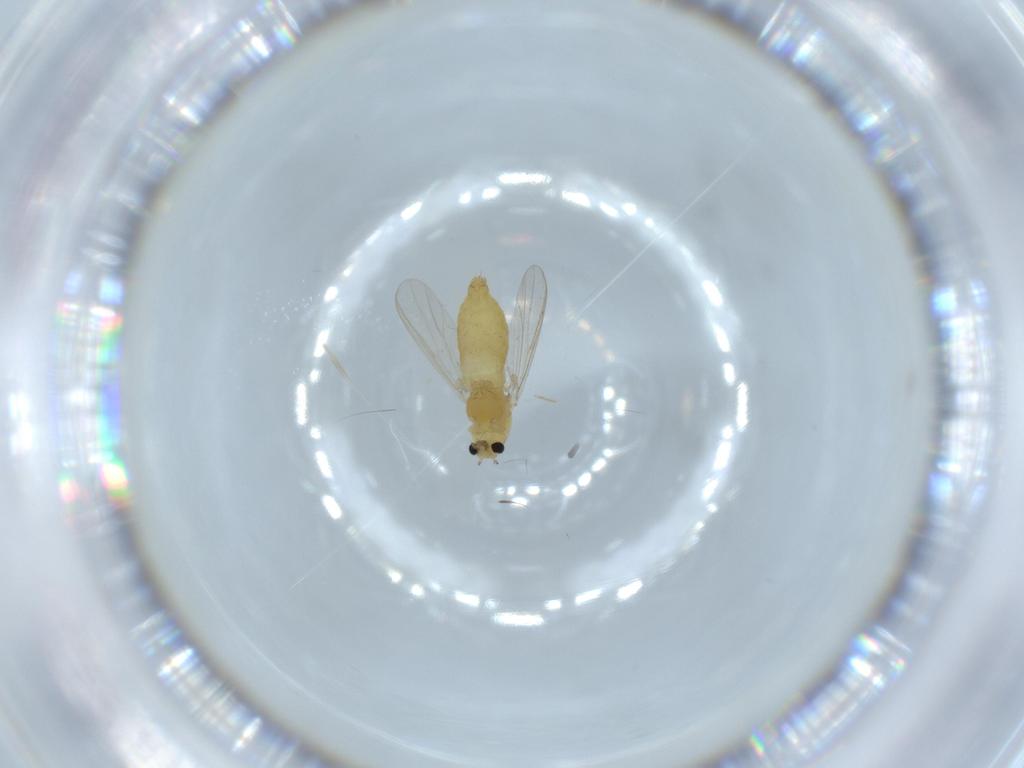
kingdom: Animalia
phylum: Arthropoda
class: Insecta
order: Diptera
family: Chironomidae
